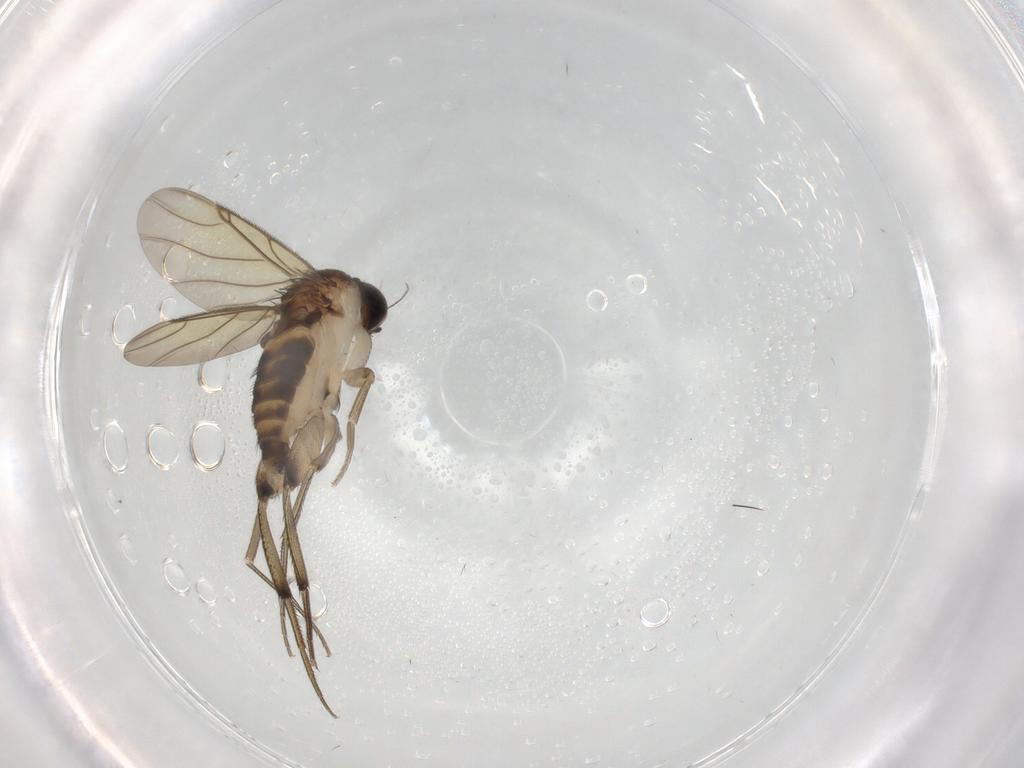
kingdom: Animalia
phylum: Arthropoda
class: Insecta
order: Diptera
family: Phoridae
